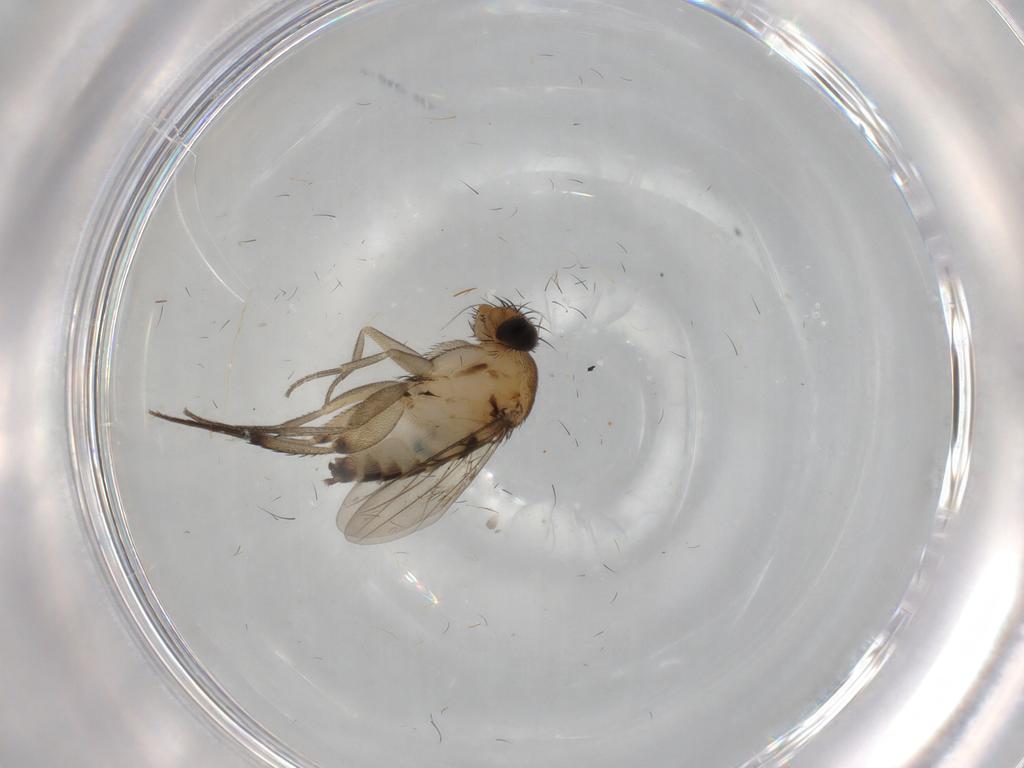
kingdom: Animalia
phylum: Arthropoda
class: Insecta
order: Diptera
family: Phoridae
